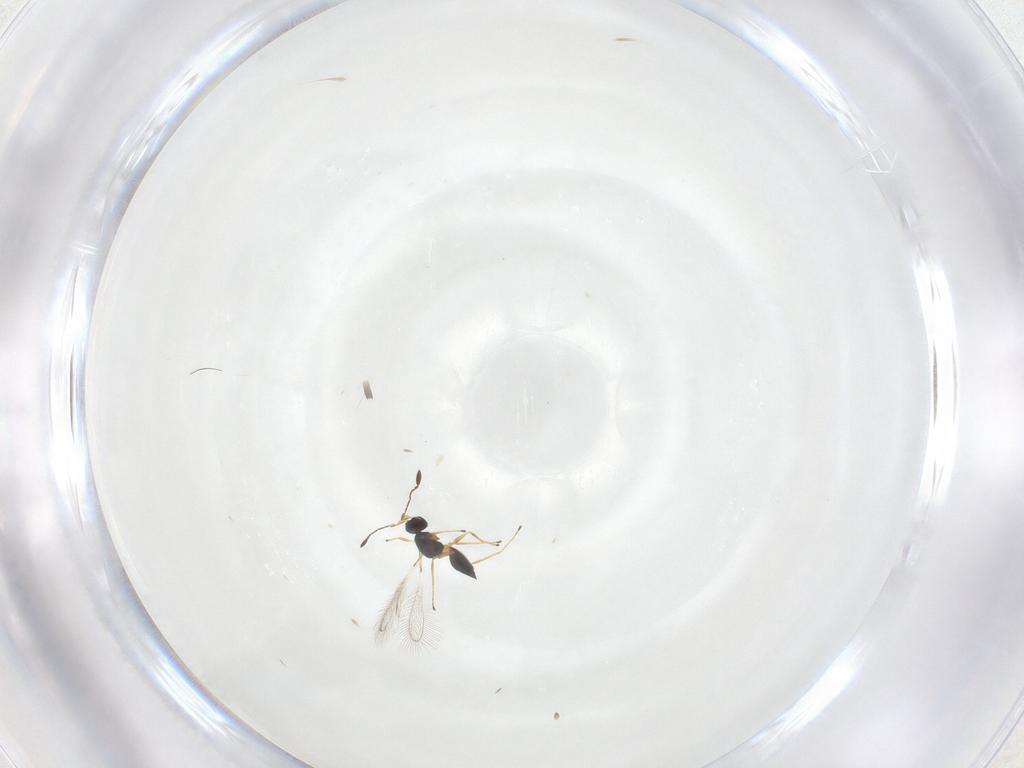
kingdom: Animalia
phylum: Arthropoda
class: Insecta
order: Hymenoptera
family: Mymaridae
